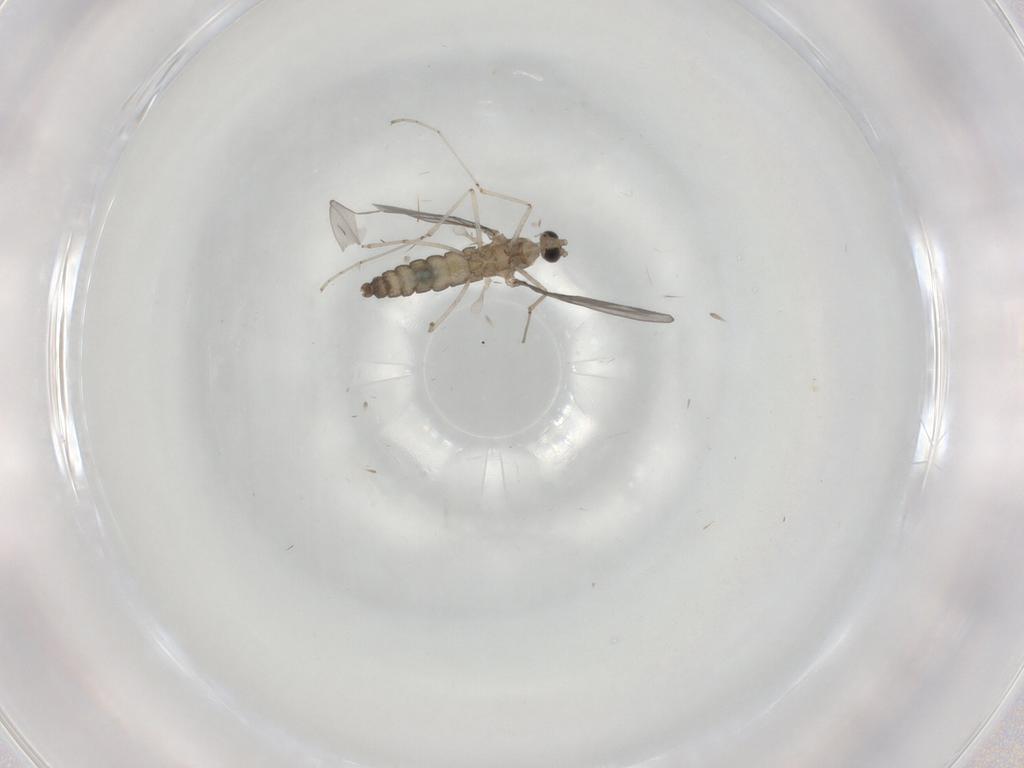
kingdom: Animalia
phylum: Arthropoda
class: Insecta
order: Diptera
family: Cecidomyiidae
